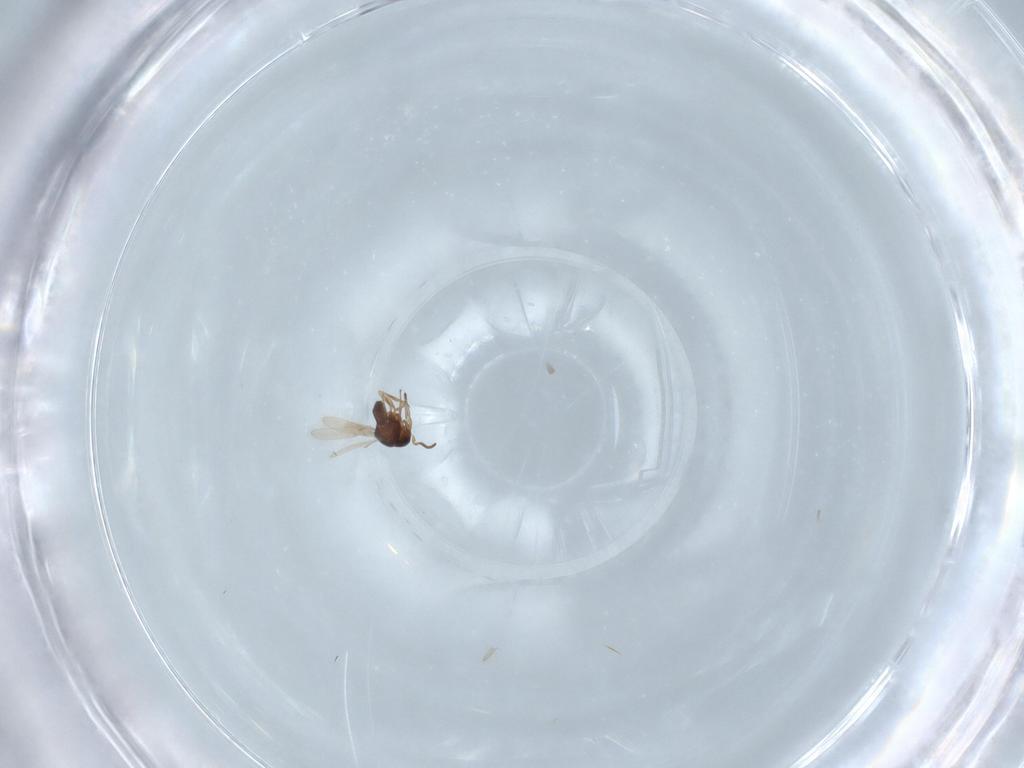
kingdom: Animalia
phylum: Arthropoda
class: Insecta
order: Hymenoptera
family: Encyrtidae
